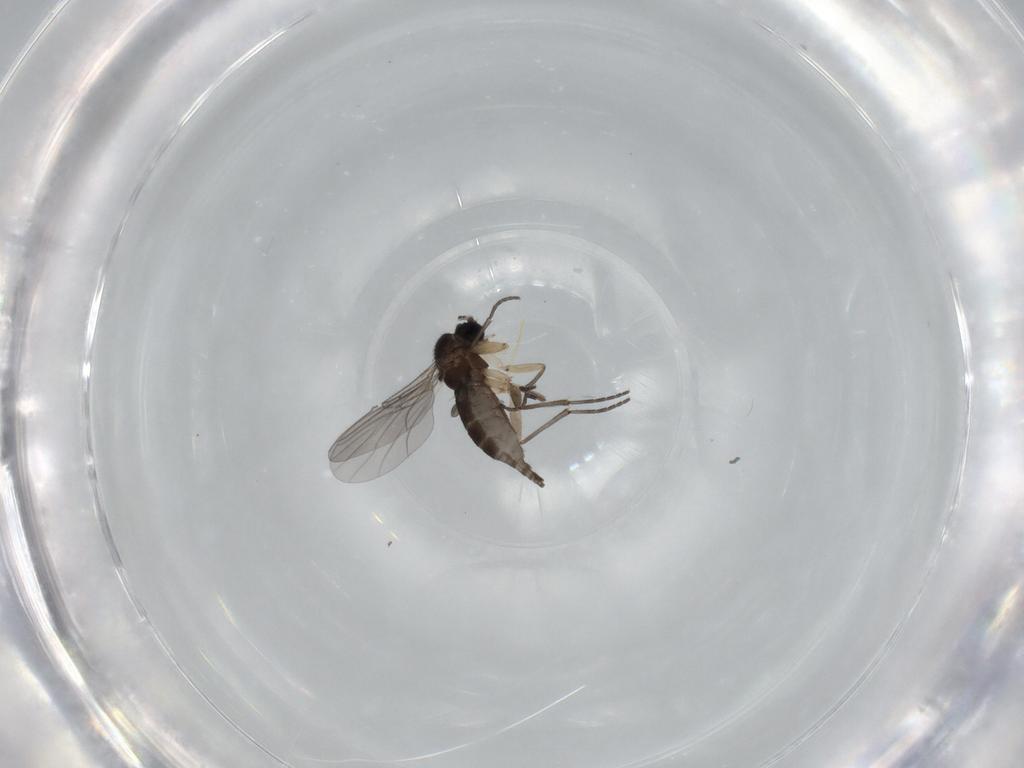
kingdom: Animalia
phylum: Arthropoda
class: Insecta
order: Diptera
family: Sciaridae
